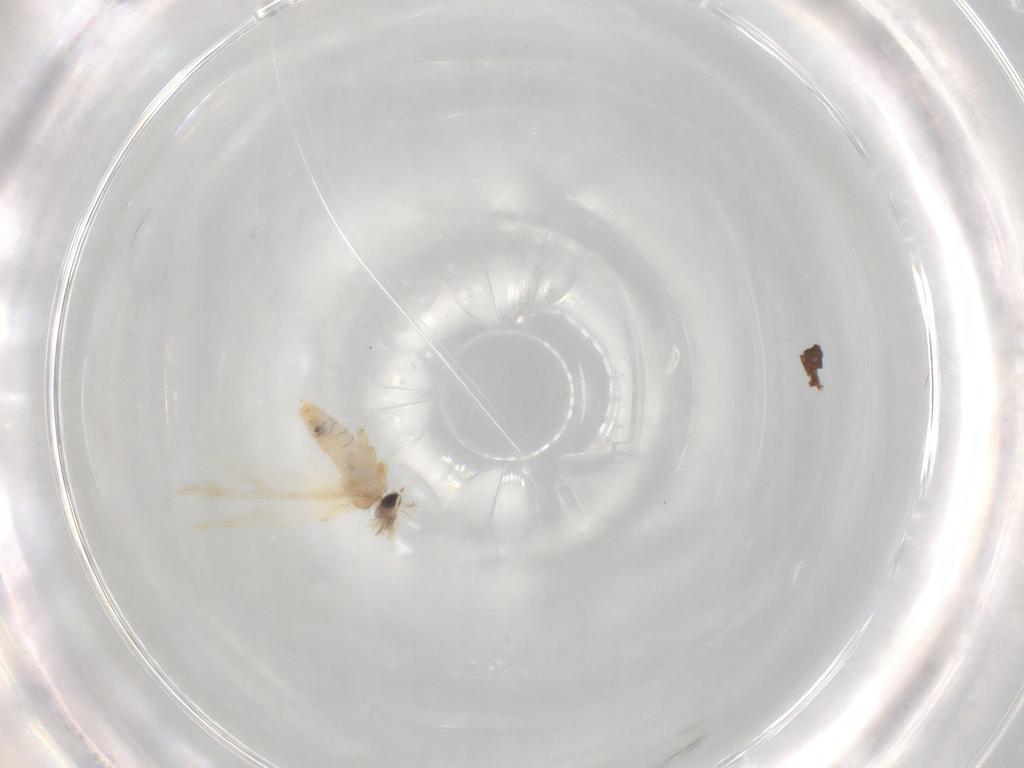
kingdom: Animalia
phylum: Arthropoda
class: Insecta
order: Lepidoptera
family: Nepticulidae
